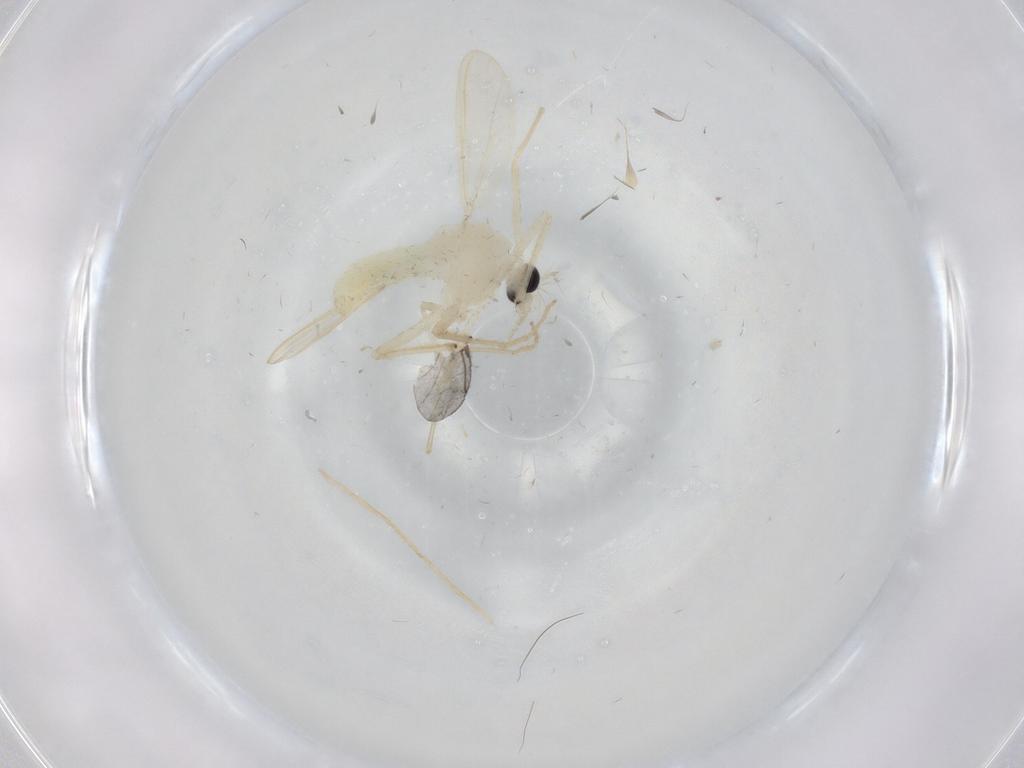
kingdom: Animalia
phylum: Arthropoda
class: Insecta
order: Diptera
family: Chironomidae
